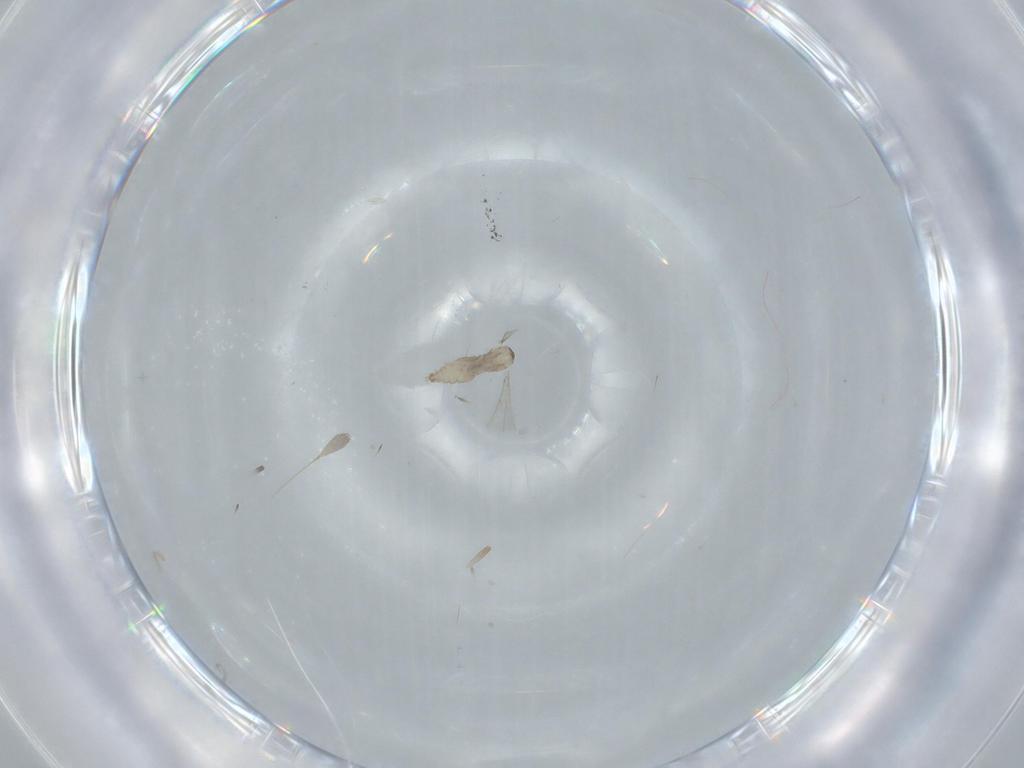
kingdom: Animalia
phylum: Arthropoda
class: Insecta
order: Diptera
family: Cecidomyiidae
